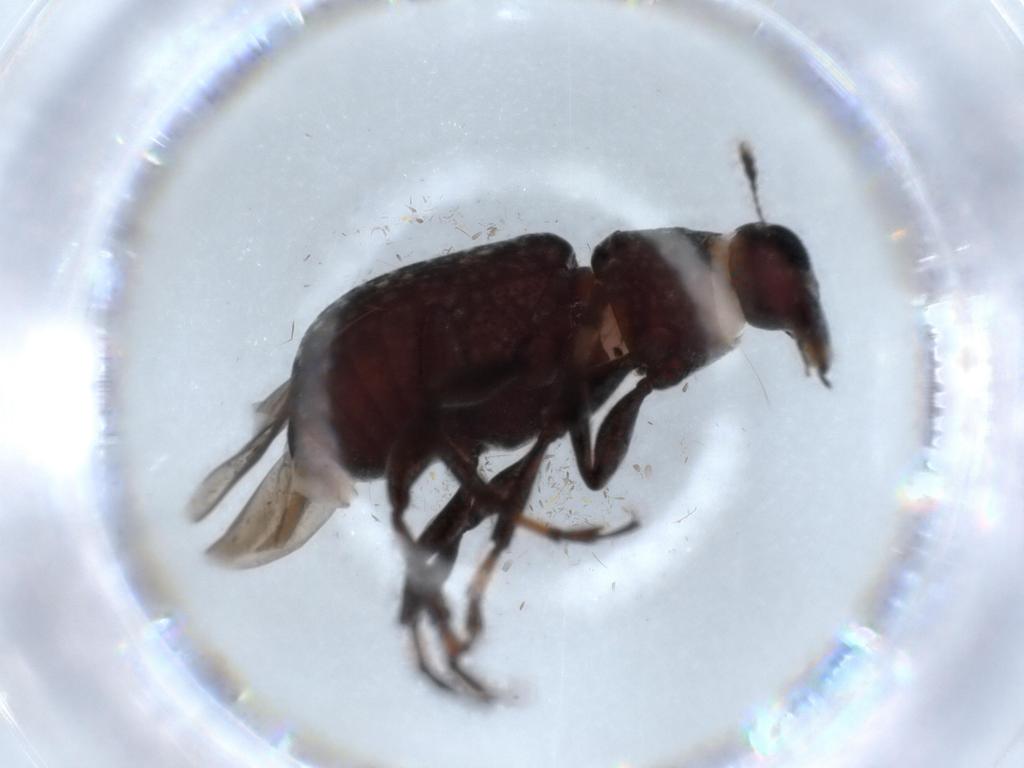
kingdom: Animalia
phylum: Arthropoda
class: Insecta
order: Coleoptera
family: Anthribidae
